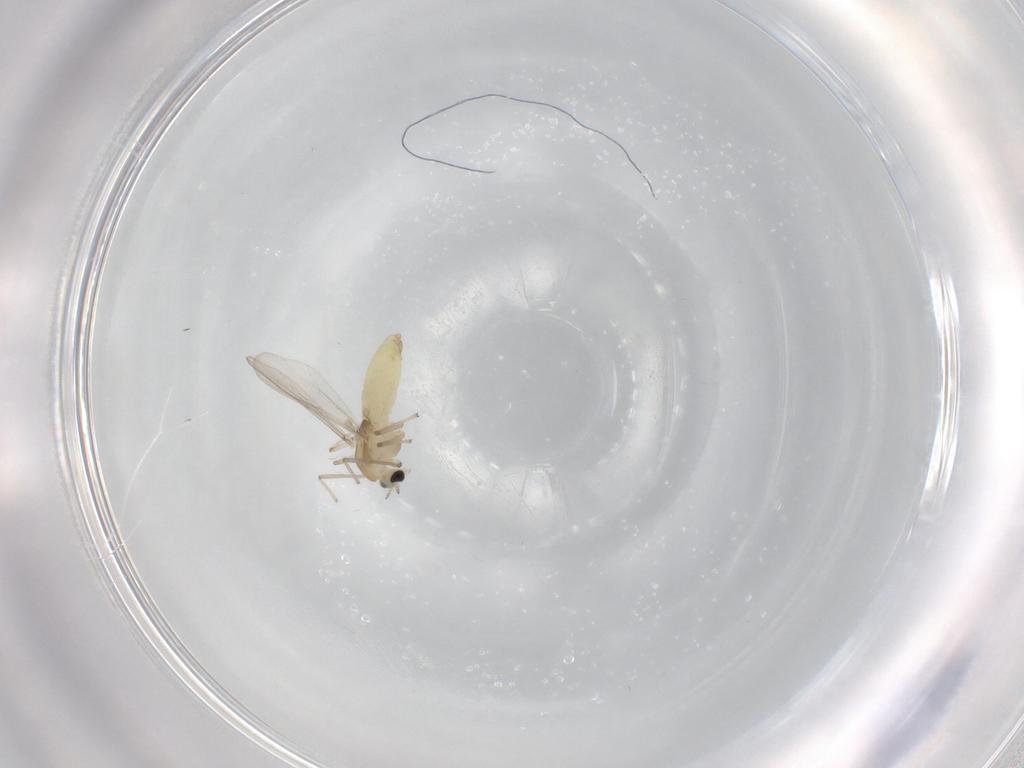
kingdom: Animalia
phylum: Arthropoda
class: Insecta
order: Diptera
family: Chironomidae
